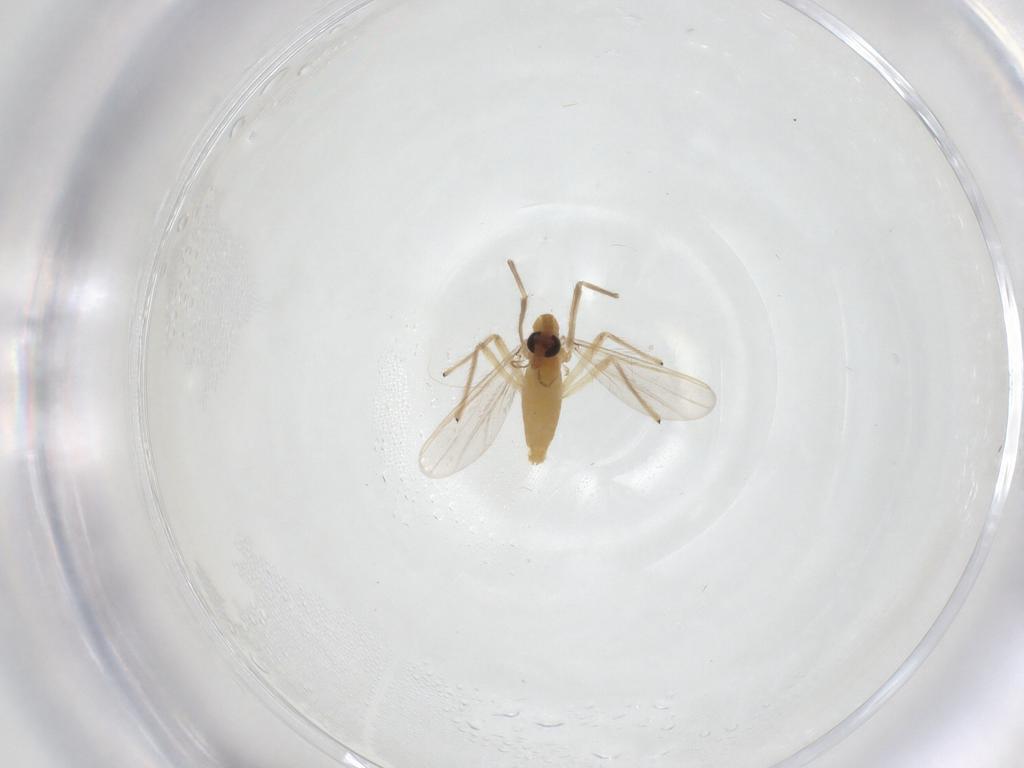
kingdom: Animalia
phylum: Arthropoda
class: Insecta
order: Diptera
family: Chironomidae
